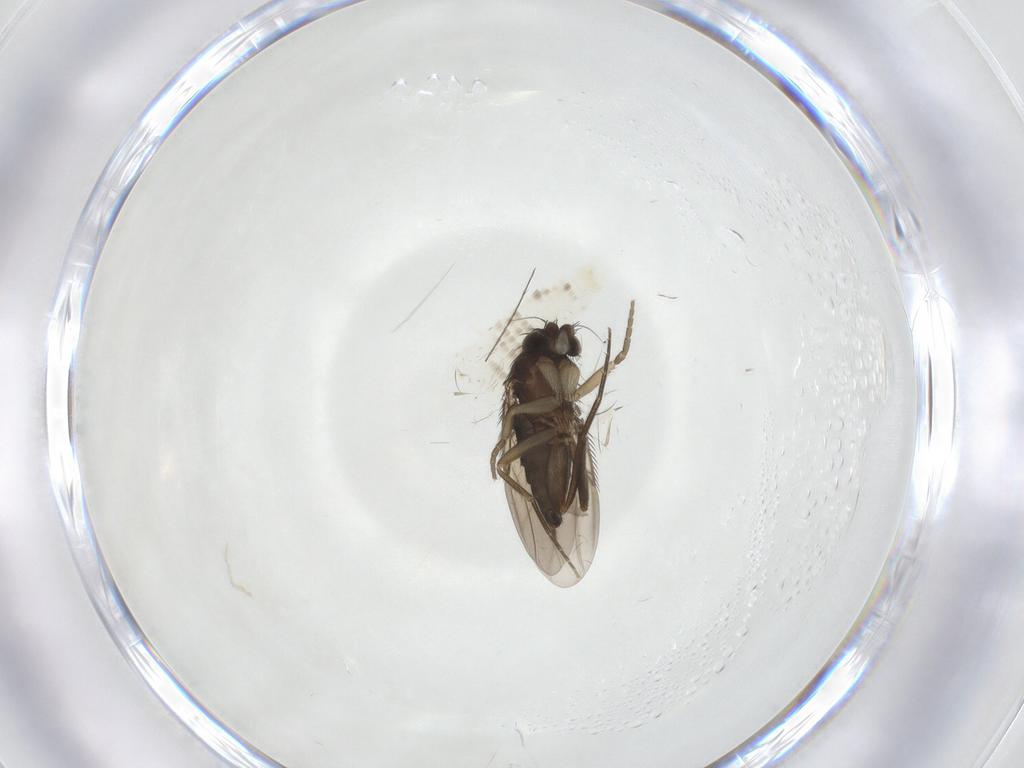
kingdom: Animalia
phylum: Arthropoda
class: Insecta
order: Diptera
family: Phoridae
